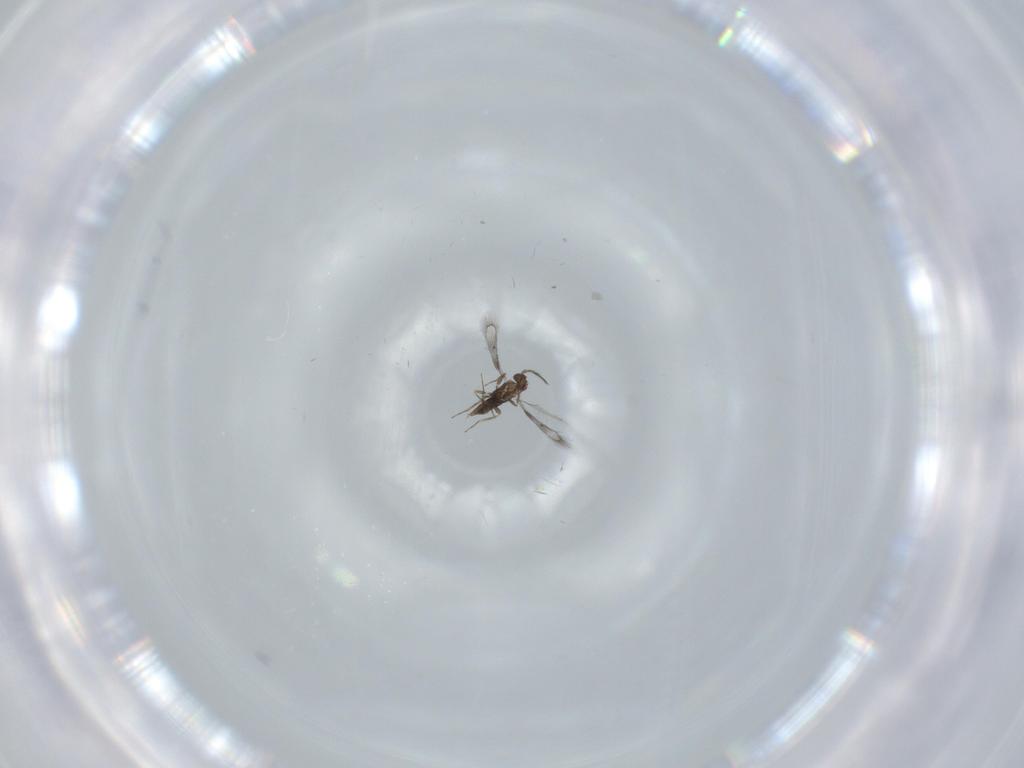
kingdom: Animalia
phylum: Arthropoda
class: Insecta
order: Hymenoptera
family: Trichogrammatidae
